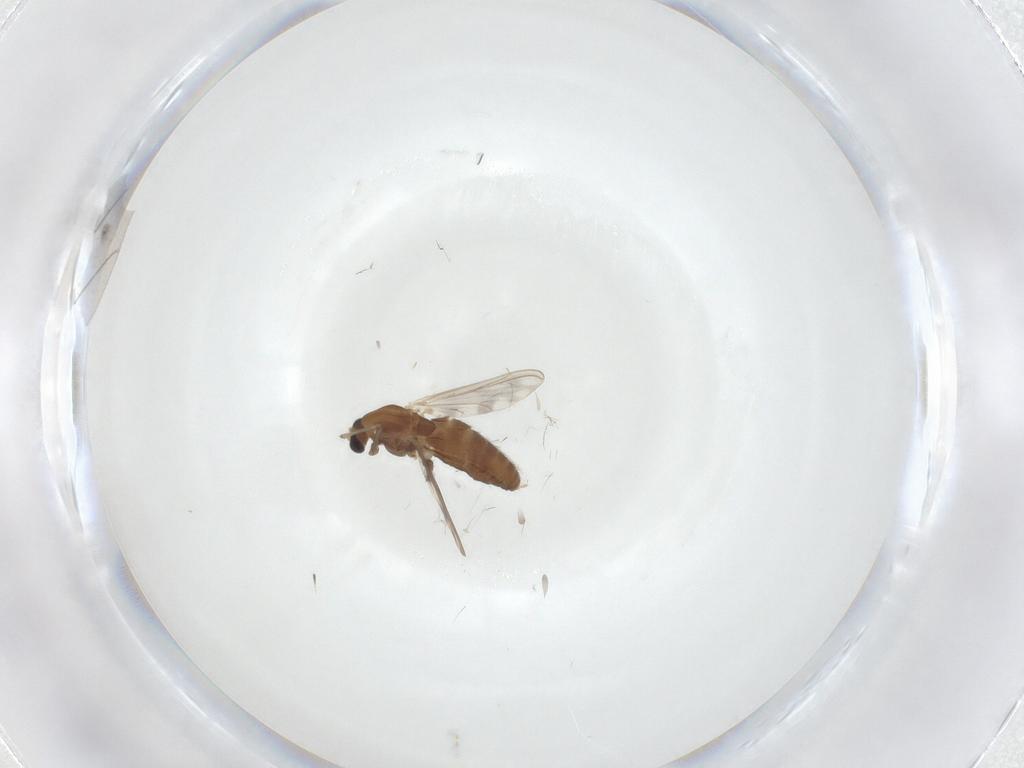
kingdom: Animalia
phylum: Arthropoda
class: Insecta
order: Diptera
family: Chironomidae
